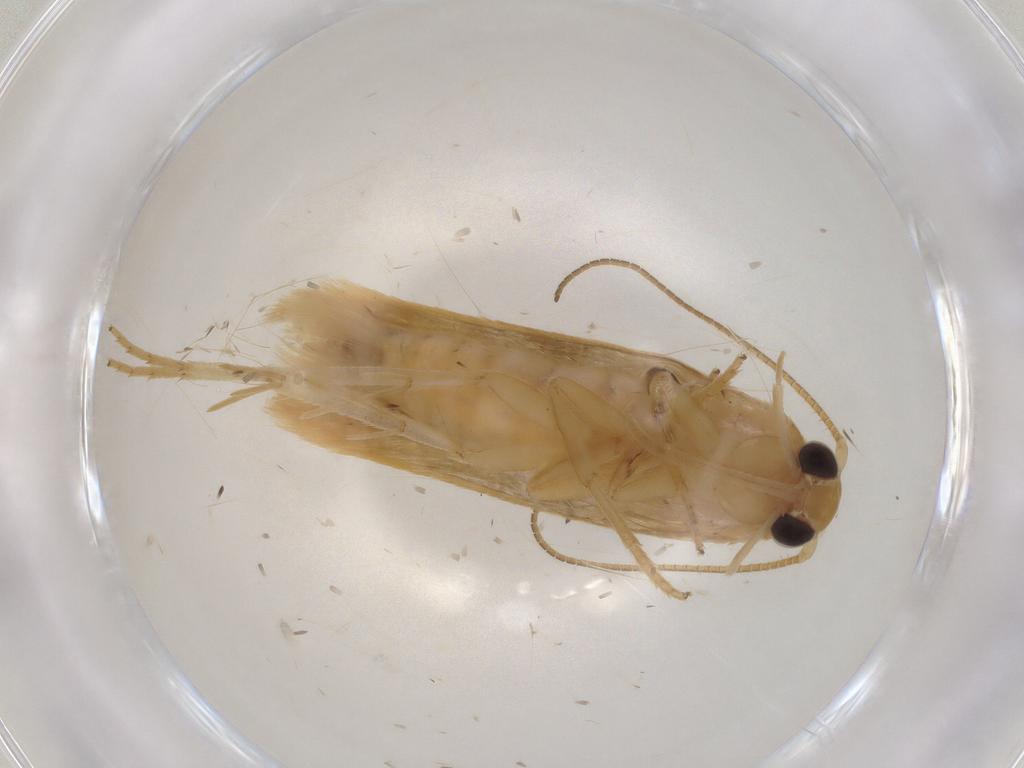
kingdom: Animalia
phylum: Arthropoda
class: Insecta
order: Lepidoptera
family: Stathmopodidae
